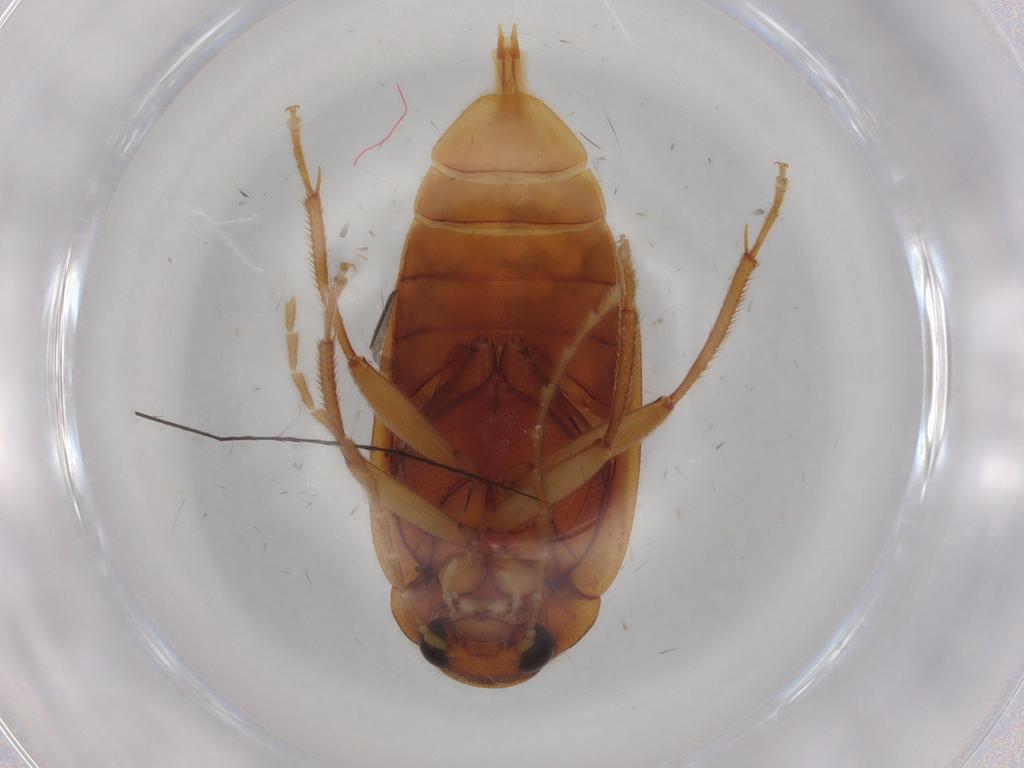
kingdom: Animalia
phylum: Arthropoda
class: Insecta
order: Coleoptera
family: Ptilodactylidae
